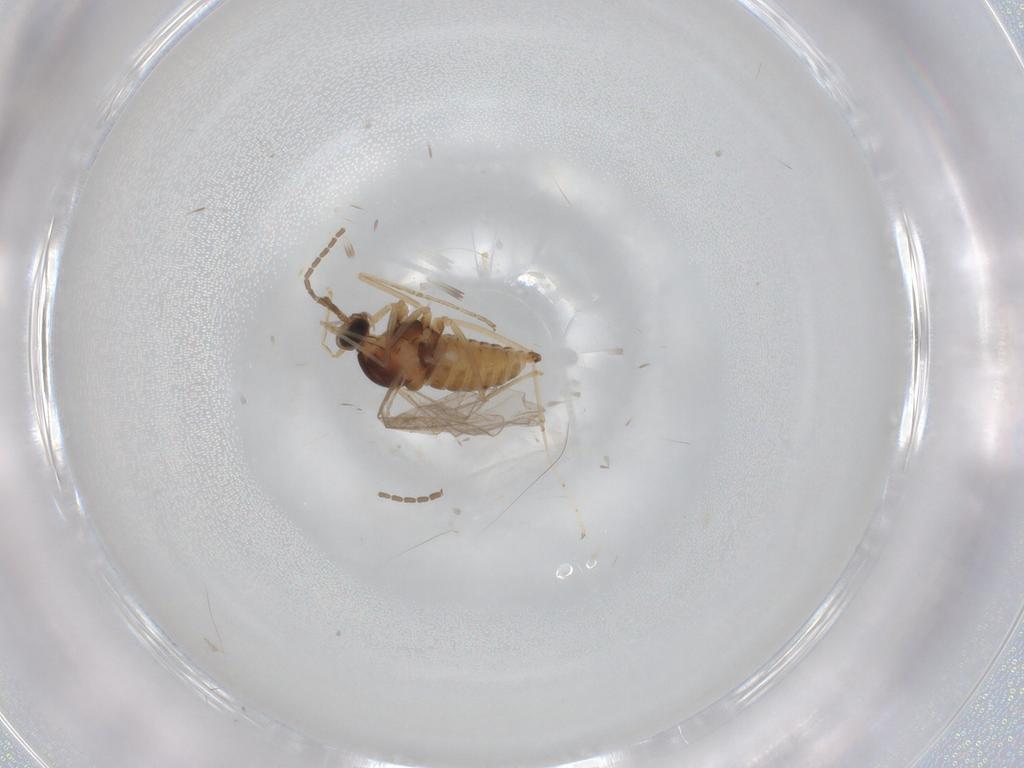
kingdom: Animalia
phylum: Arthropoda
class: Insecta
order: Diptera
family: Cecidomyiidae
